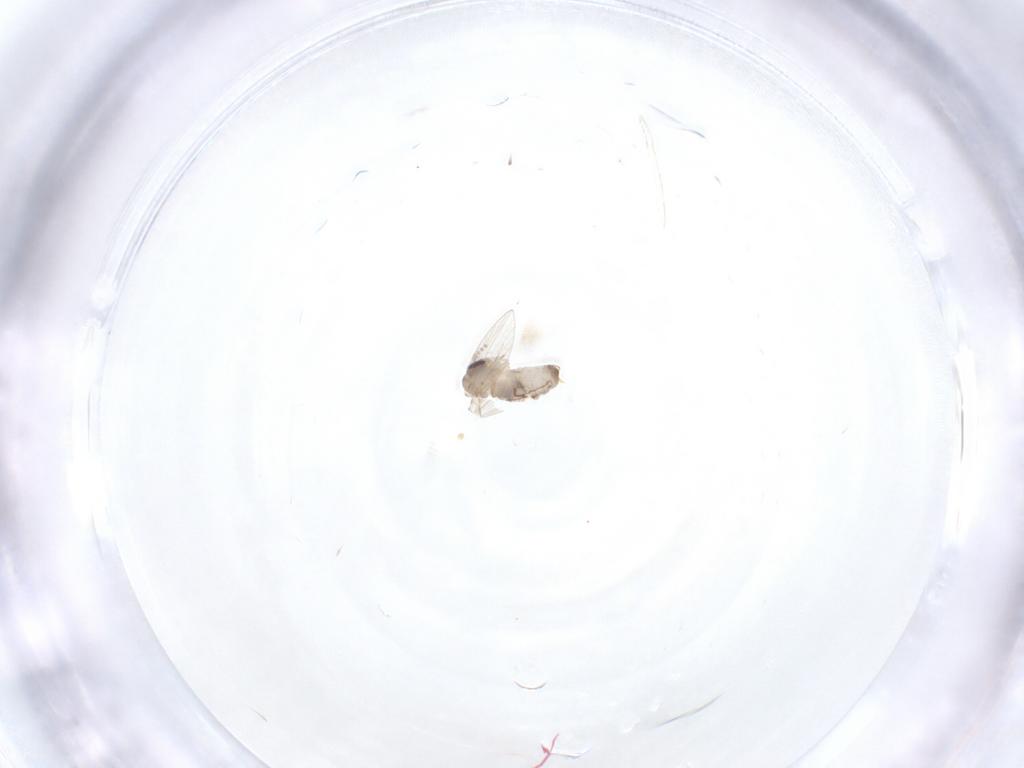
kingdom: Animalia
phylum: Arthropoda
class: Insecta
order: Diptera
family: Psychodidae
